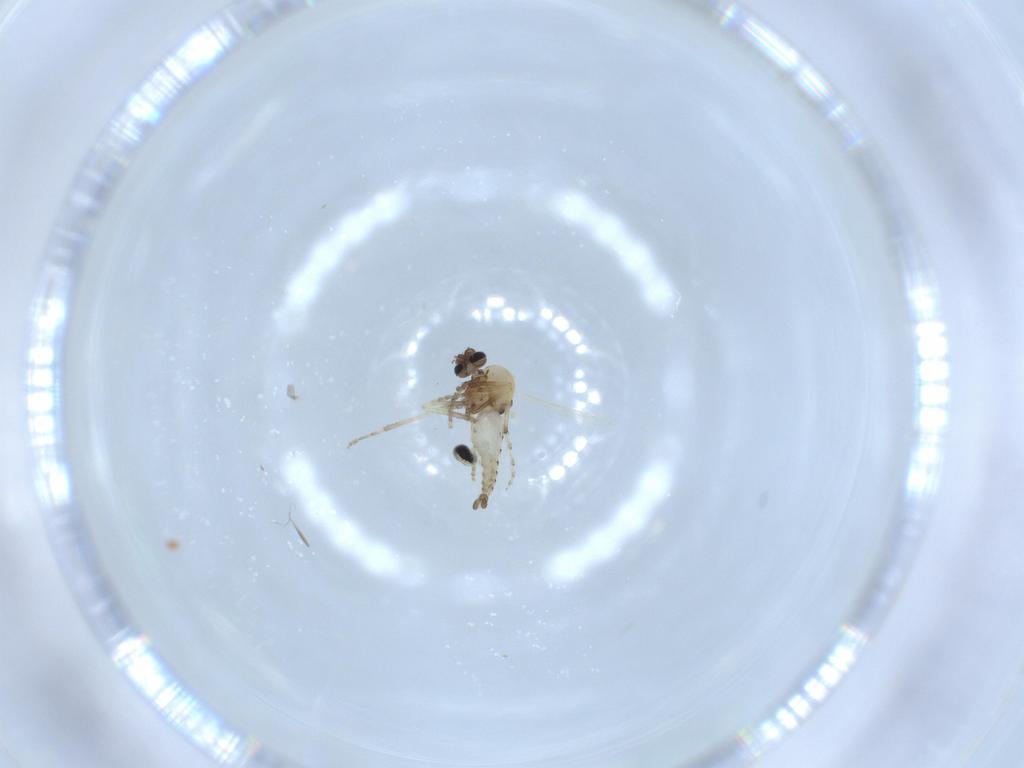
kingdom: Animalia
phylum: Arthropoda
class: Insecta
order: Diptera
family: Cecidomyiidae
